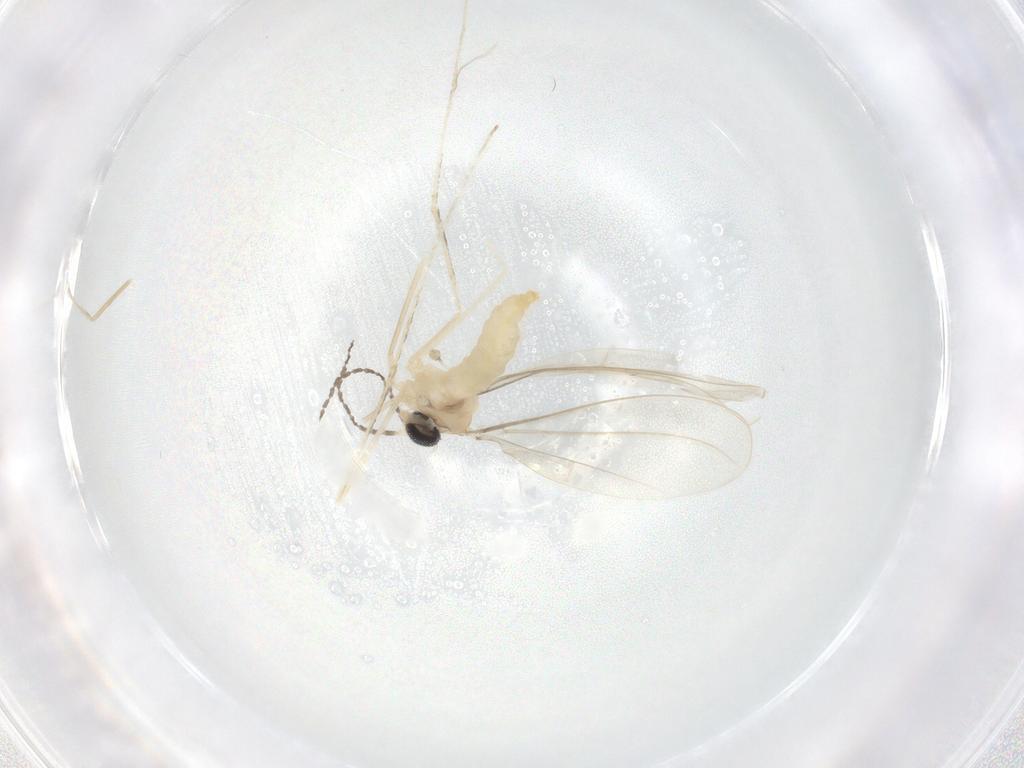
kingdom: Animalia
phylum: Arthropoda
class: Insecta
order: Diptera
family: Cecidomyiidae
